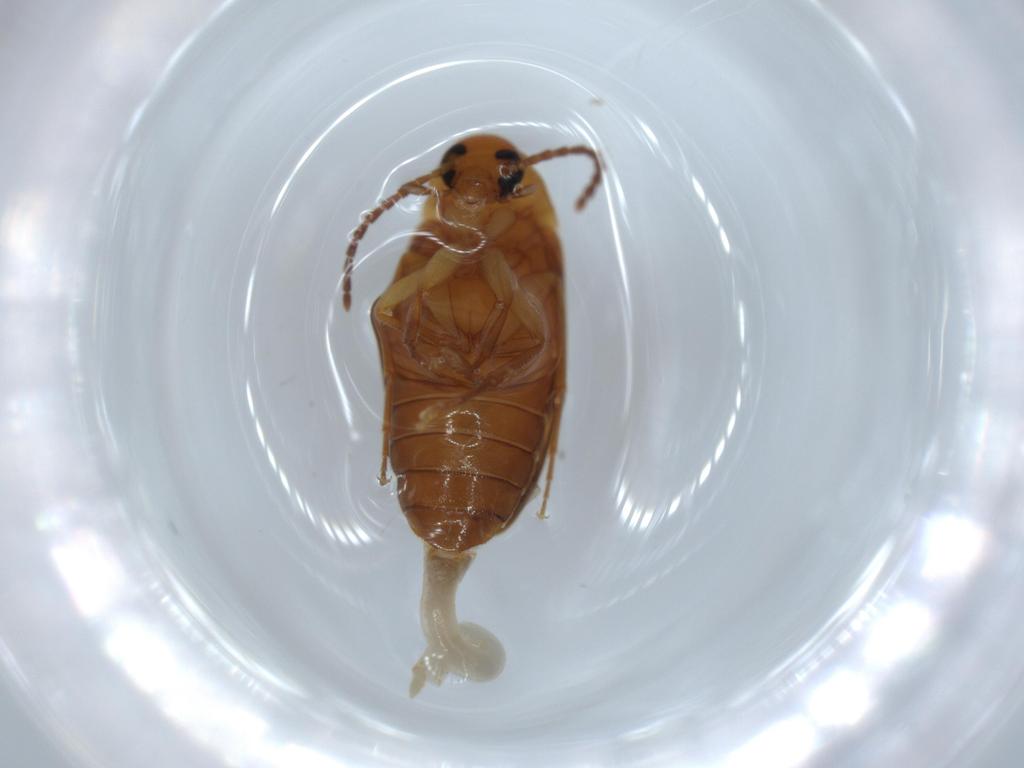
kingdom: Animalia
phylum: Arthropoda
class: Insecta
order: Coleoptera
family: Scraptiidae
